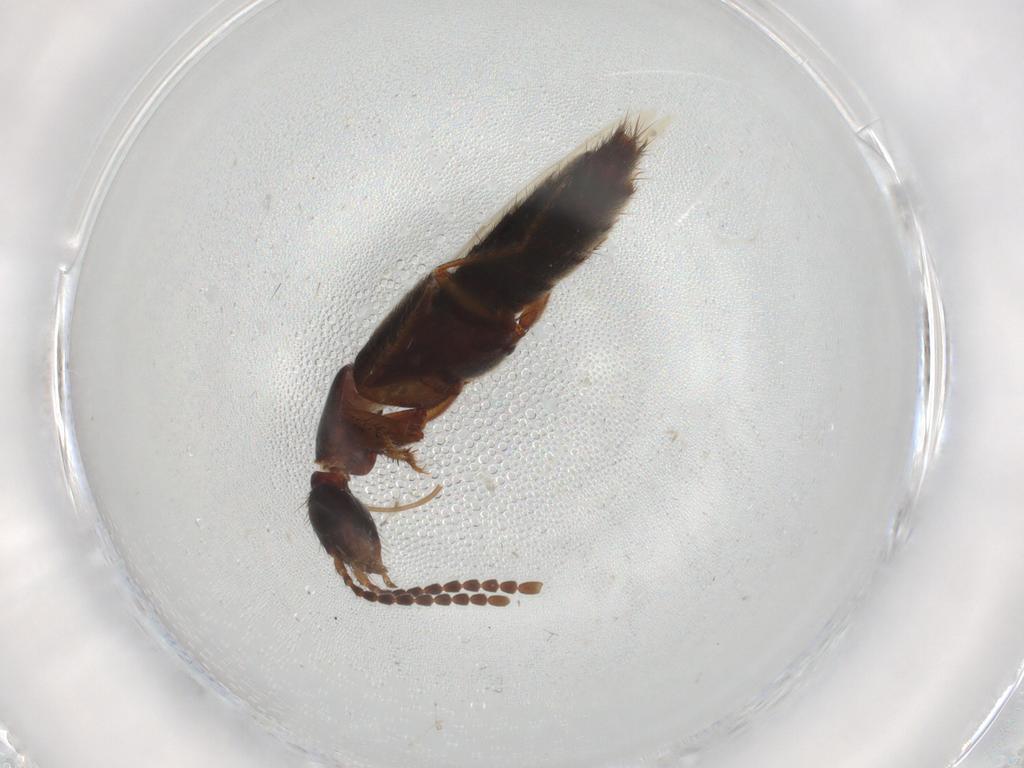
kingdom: Animalia
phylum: Arthropoda
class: Insecta
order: Coleoptera
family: Staphylinidae
